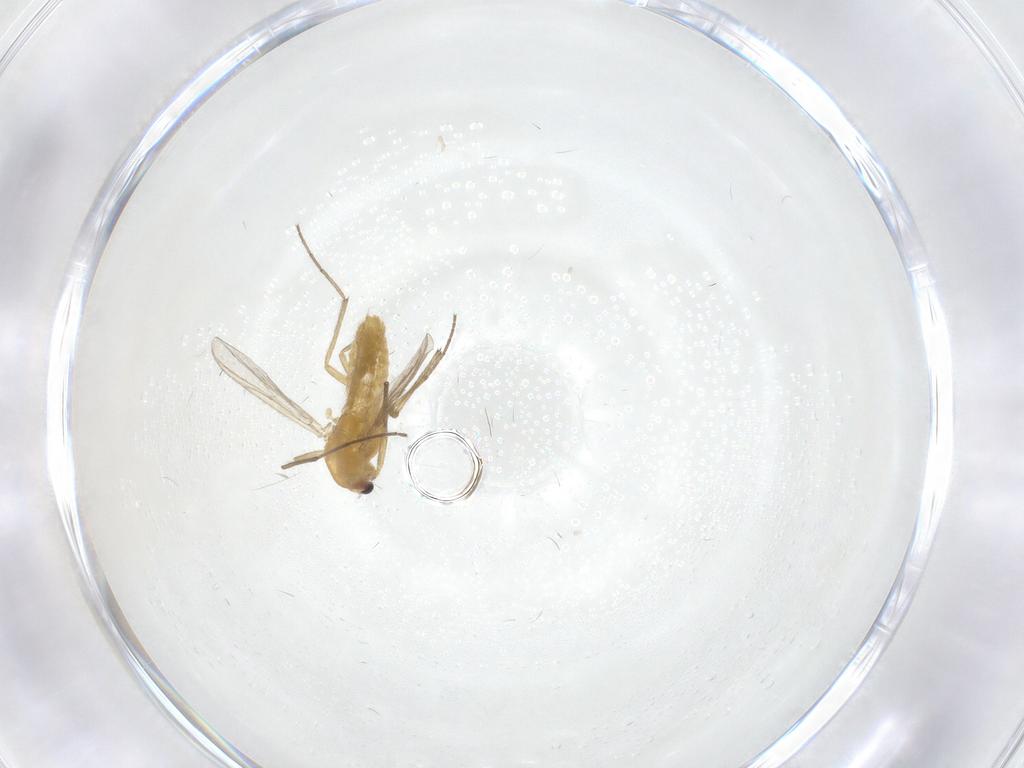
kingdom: Animalia
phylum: Arthropoda
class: Insecta
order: Diptera
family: Chironomidae
